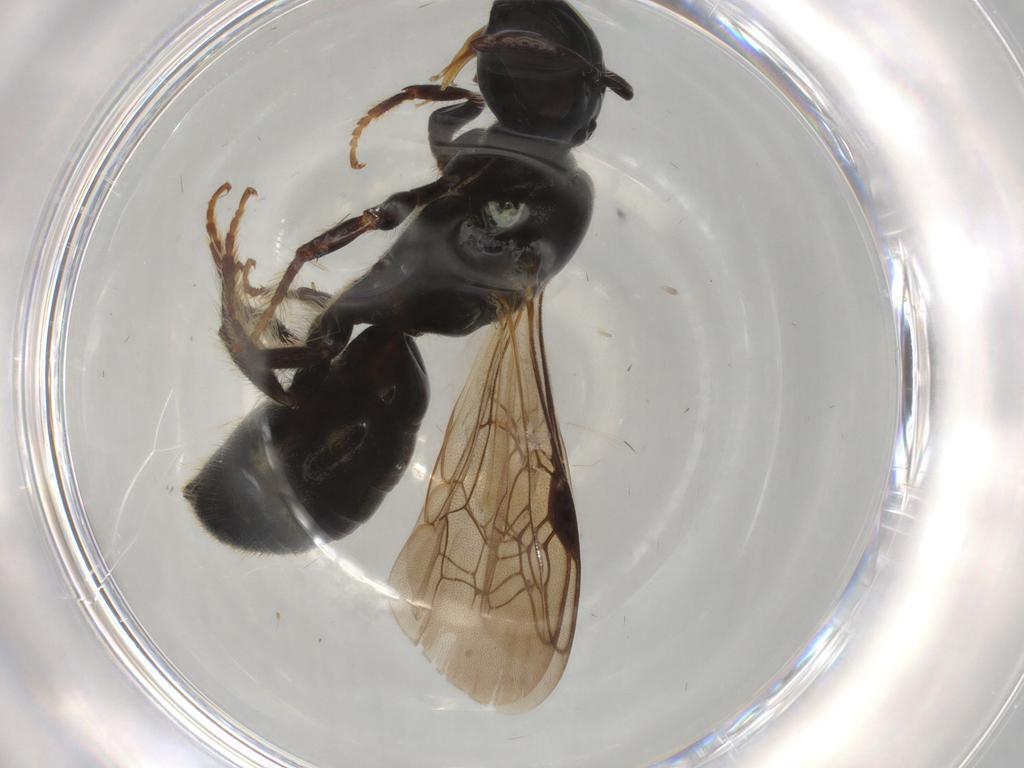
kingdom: Animalia
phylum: Arthropoda
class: Insecta
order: Hymenoptera
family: Apidae
